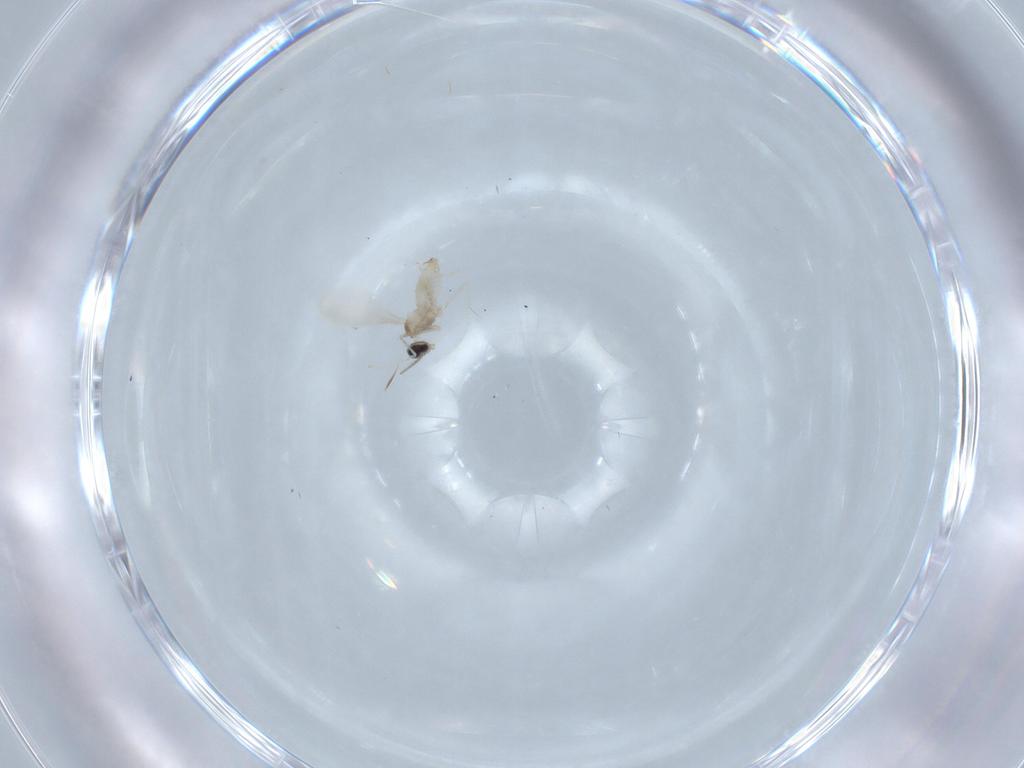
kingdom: Animalia
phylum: Arthropoda
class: Insecta
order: Diptera
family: Cecidomyiidae
